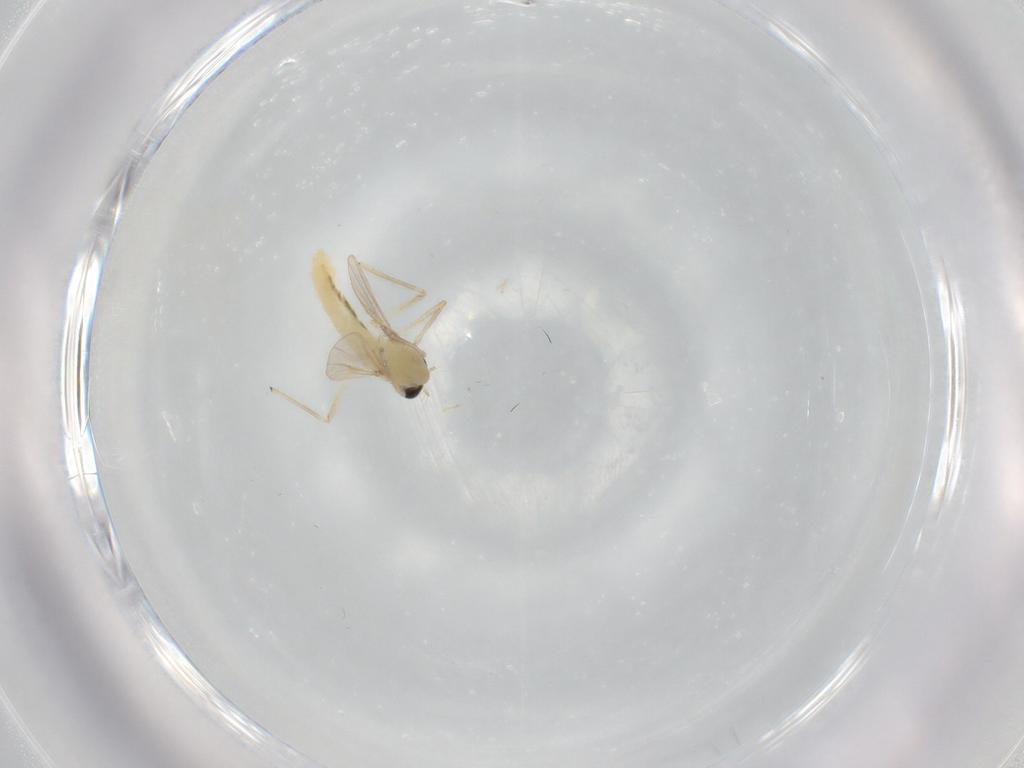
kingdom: Animalia
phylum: Arthropoda
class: Insecta
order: Diptera
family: Chironomidae
